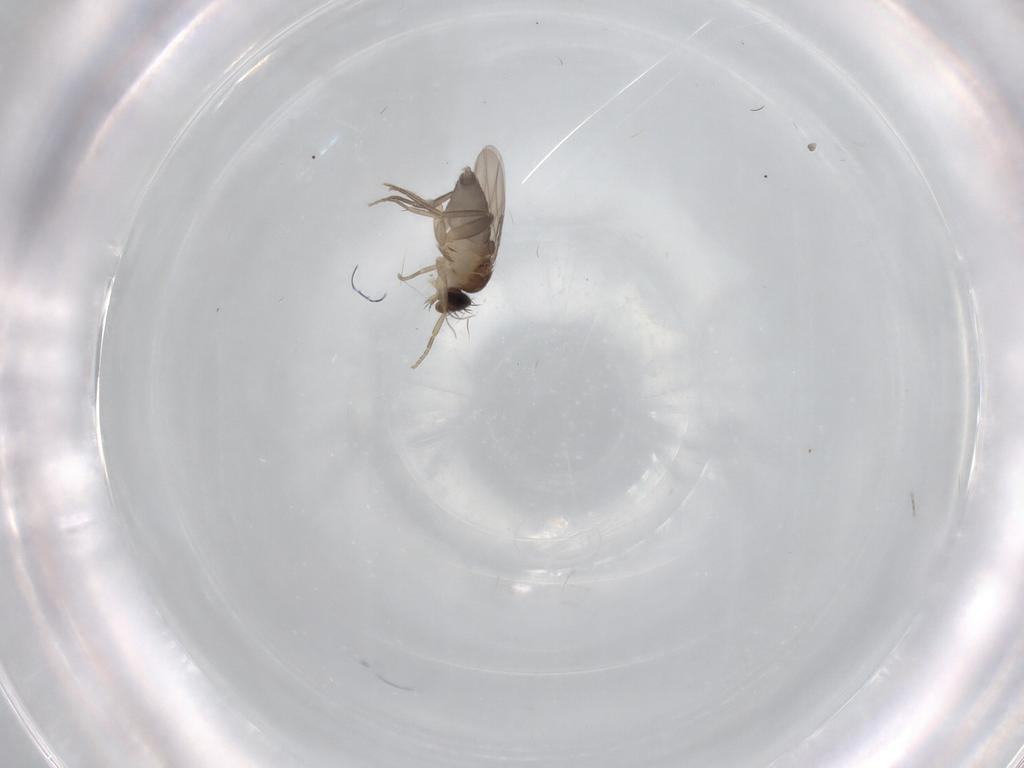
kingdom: Animalia
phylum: Arthropoda
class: Insecta
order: Diptera
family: Phoridae
